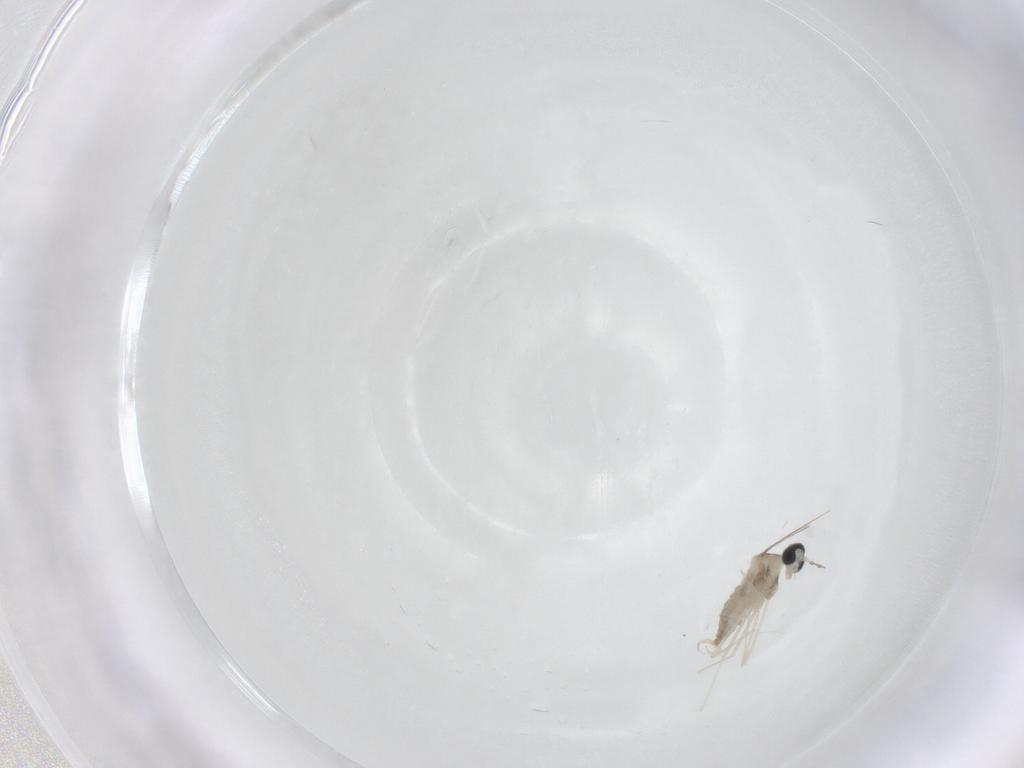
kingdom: Animalia
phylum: Arthropoda
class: Insecta
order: Diptera
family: Cecidomyiidae
